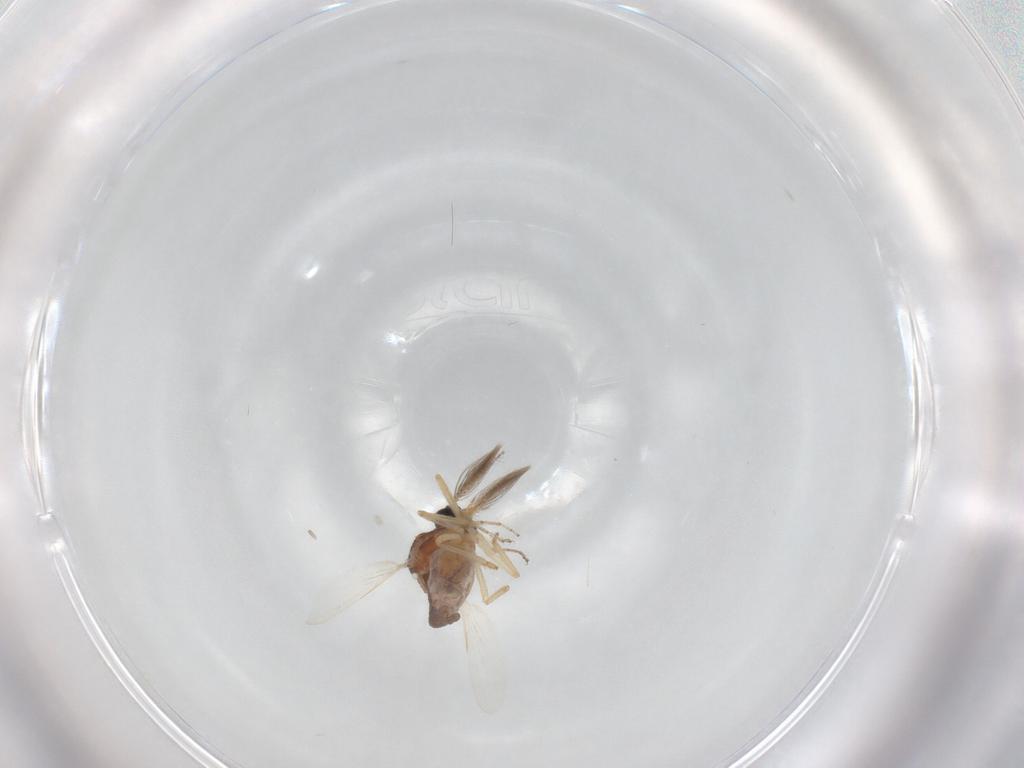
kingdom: Animalia
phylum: Arthropoda
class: Insecta
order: Diptera
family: Ceratopogonidae
